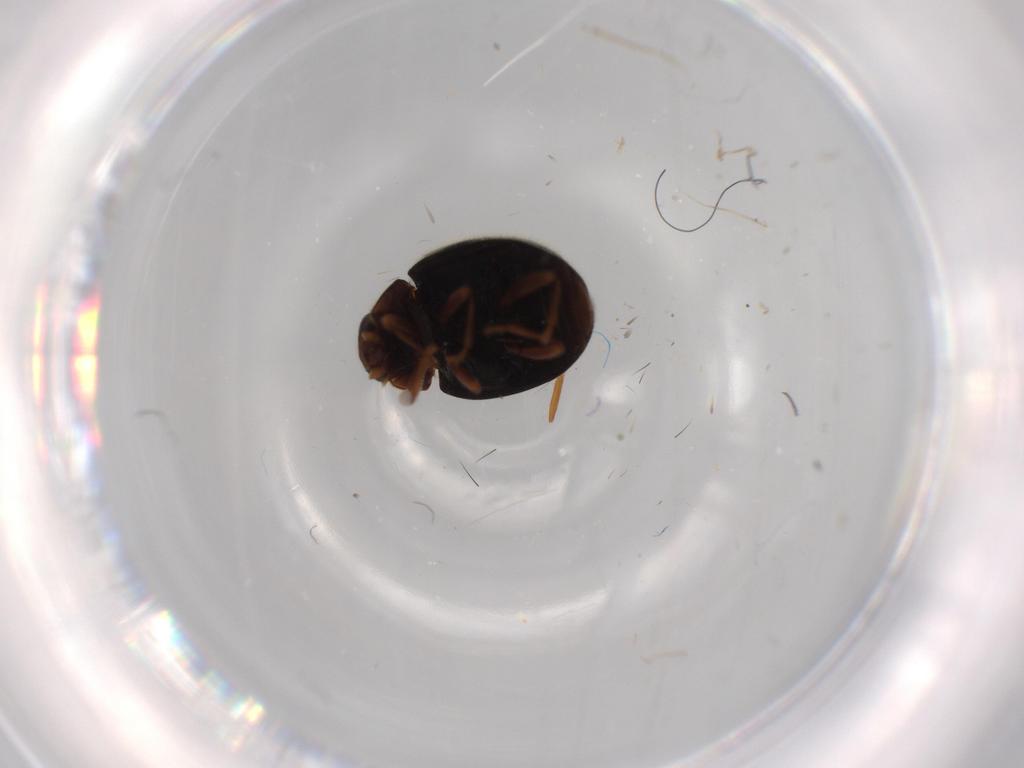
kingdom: Animalia
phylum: Arthropoda
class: Insecta
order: Coleoptera
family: Coccinellidae
